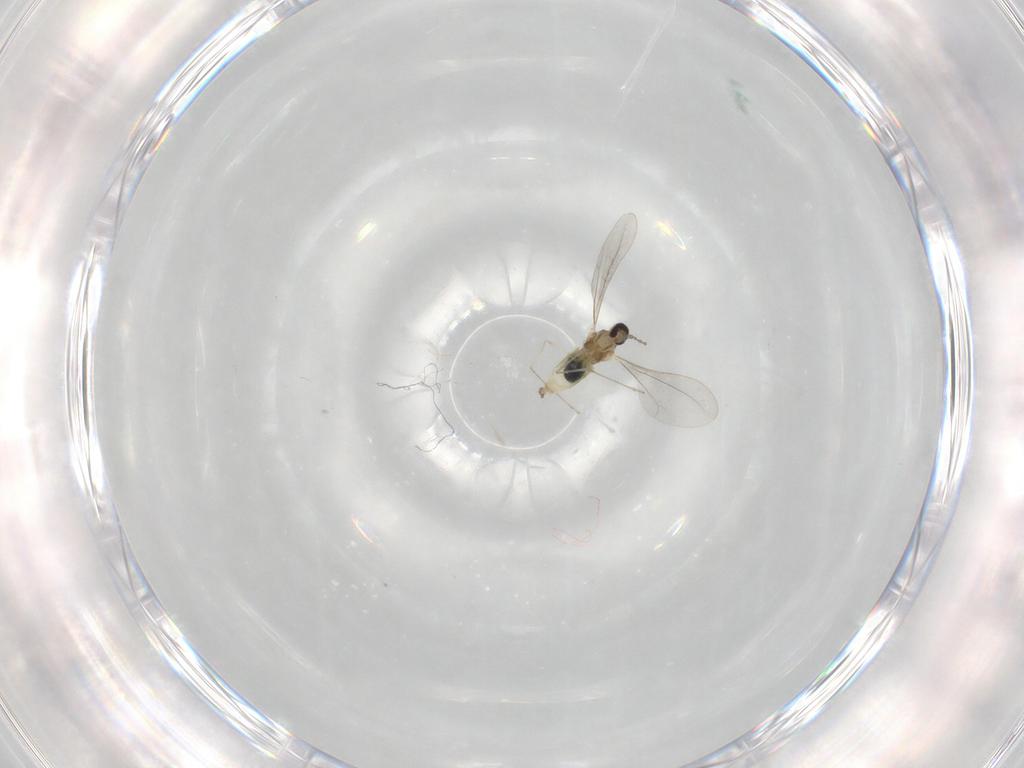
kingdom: Animalia
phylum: Arthropoda
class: Insecta
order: Diptera
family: Cecidomyiidae
